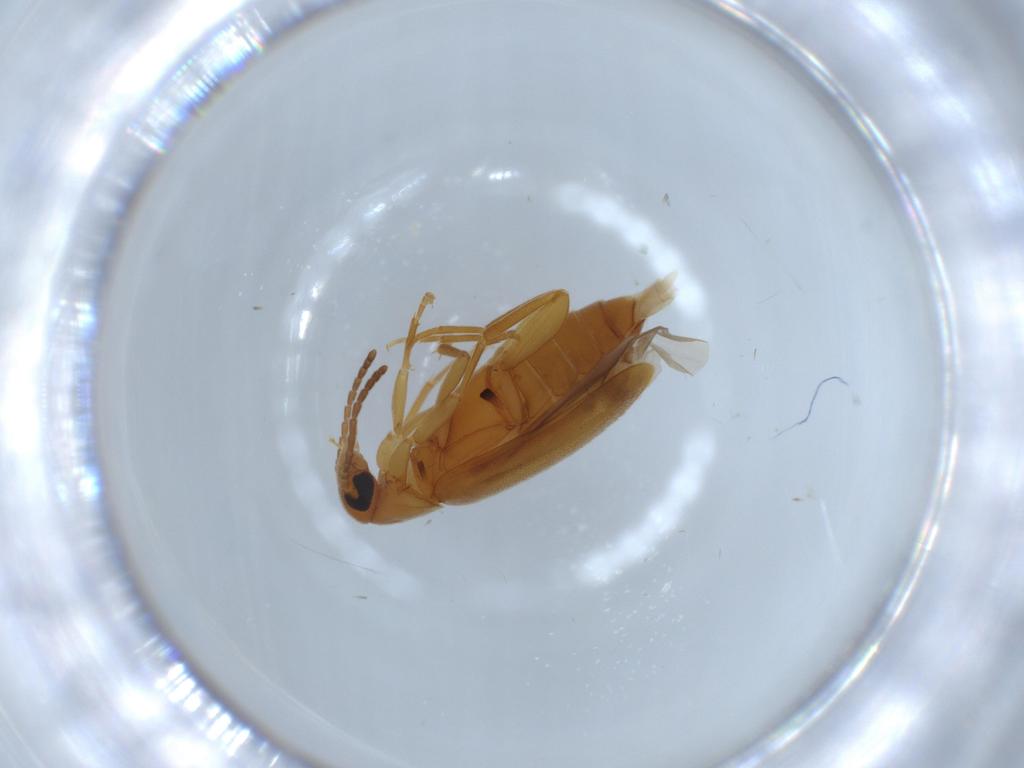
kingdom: Animalia
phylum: Arthropoda
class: Insecta
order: Coleoptera
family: Scraptiidae
